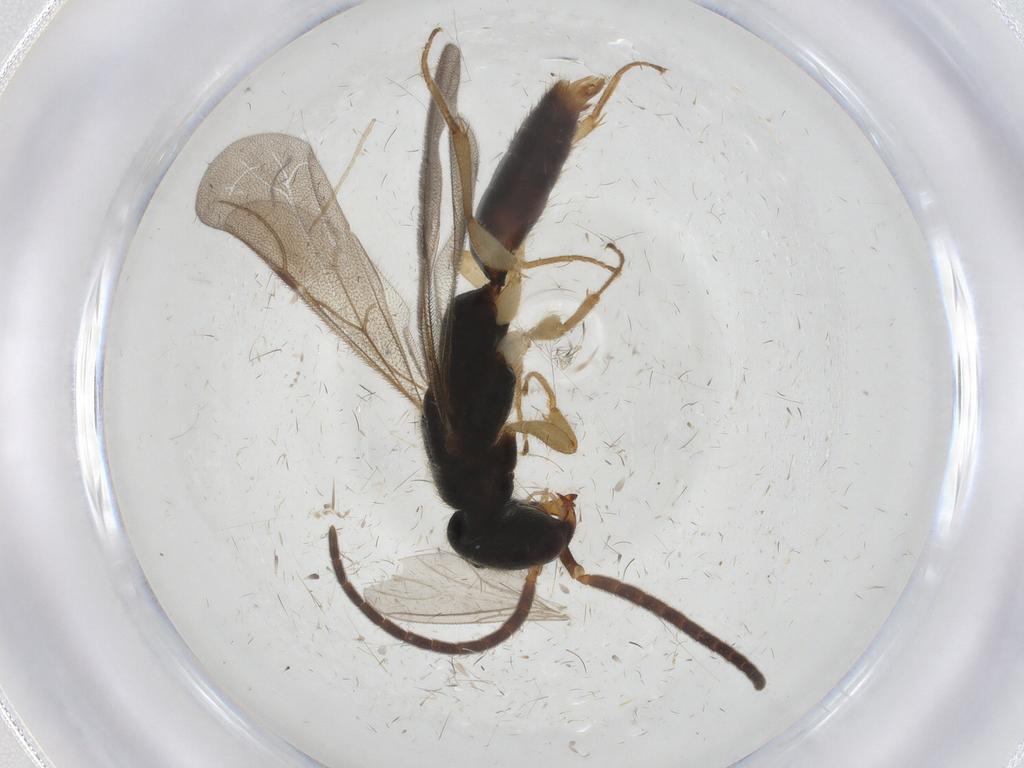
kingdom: Animalia
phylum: Arthropoda
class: Insecta
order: Hymenoptera
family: Bethylidae
